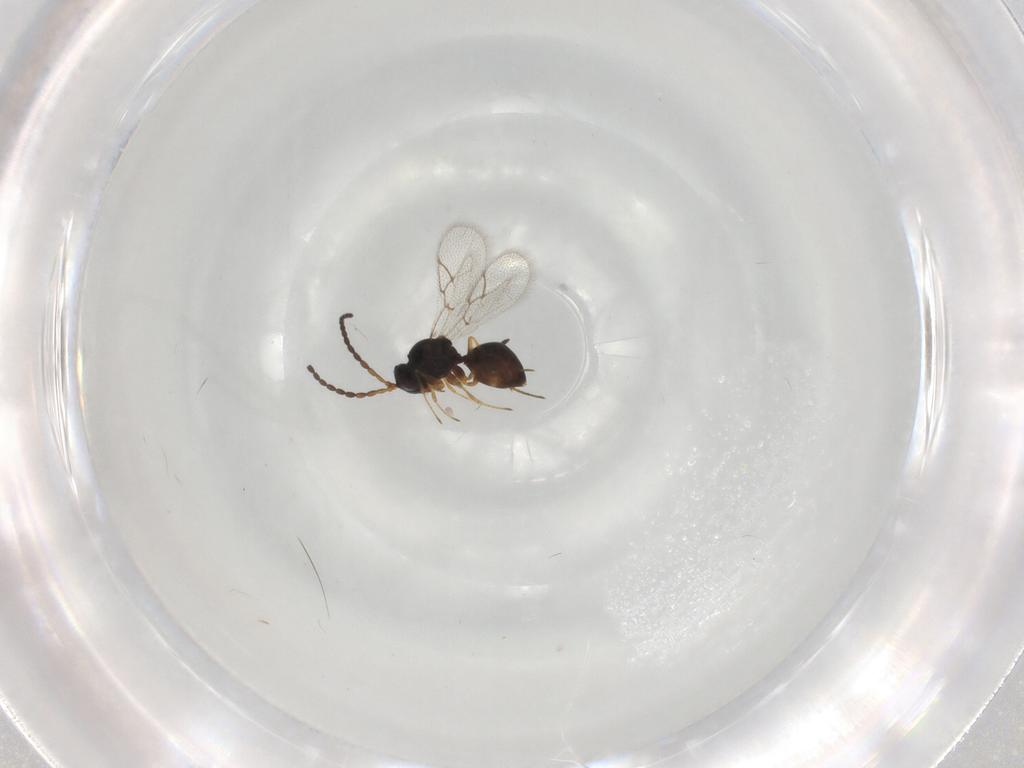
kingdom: Animalia
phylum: Arthropoda
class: Insecta
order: Hymenoptera
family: Figitidae
